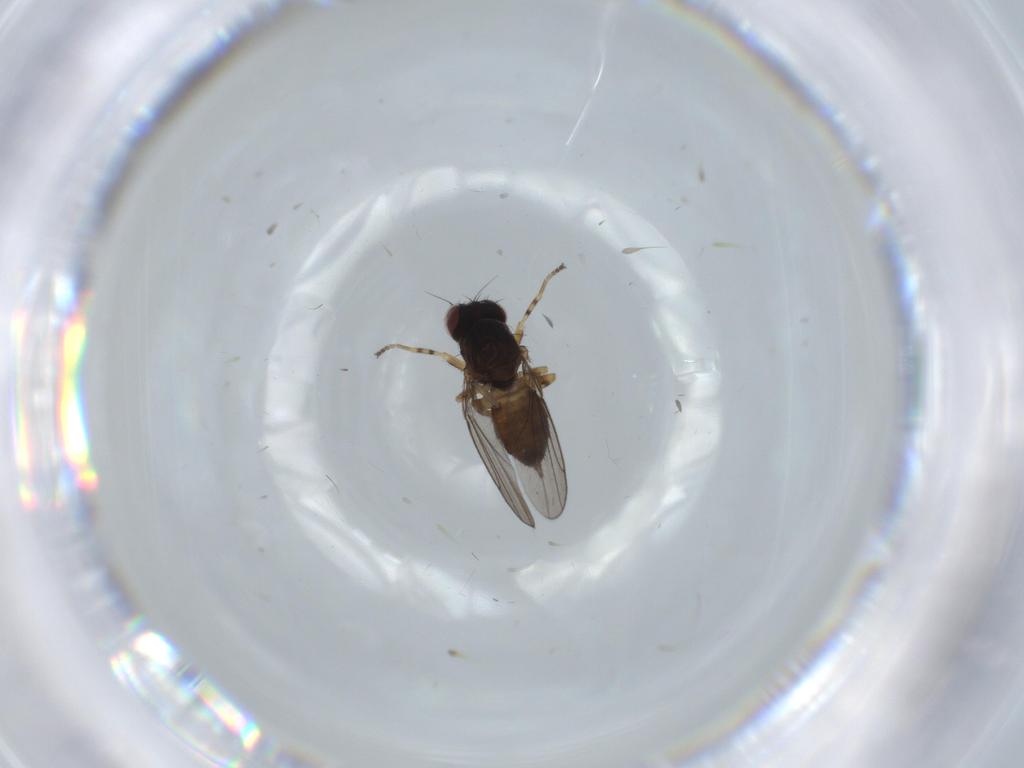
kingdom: Animalia
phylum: Arthropoda
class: Insecta
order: Diptera
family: Chloropidae
